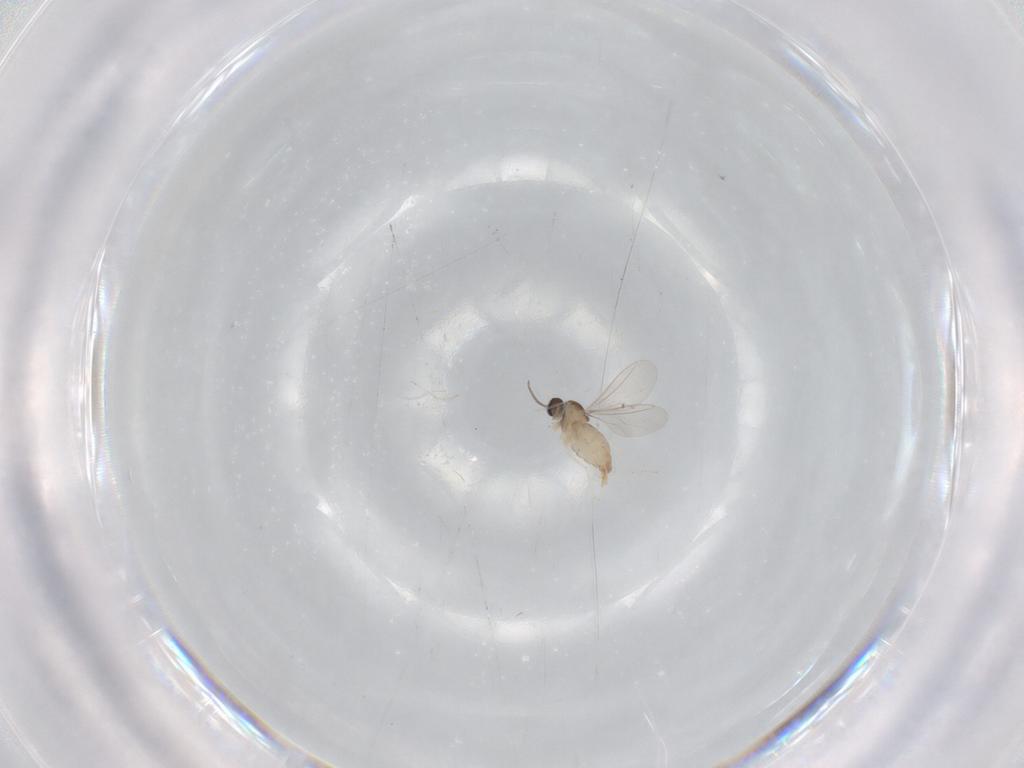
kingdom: Animalia
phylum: Arthropoda
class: Insecta
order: Diptera
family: Cecidomyiidae
